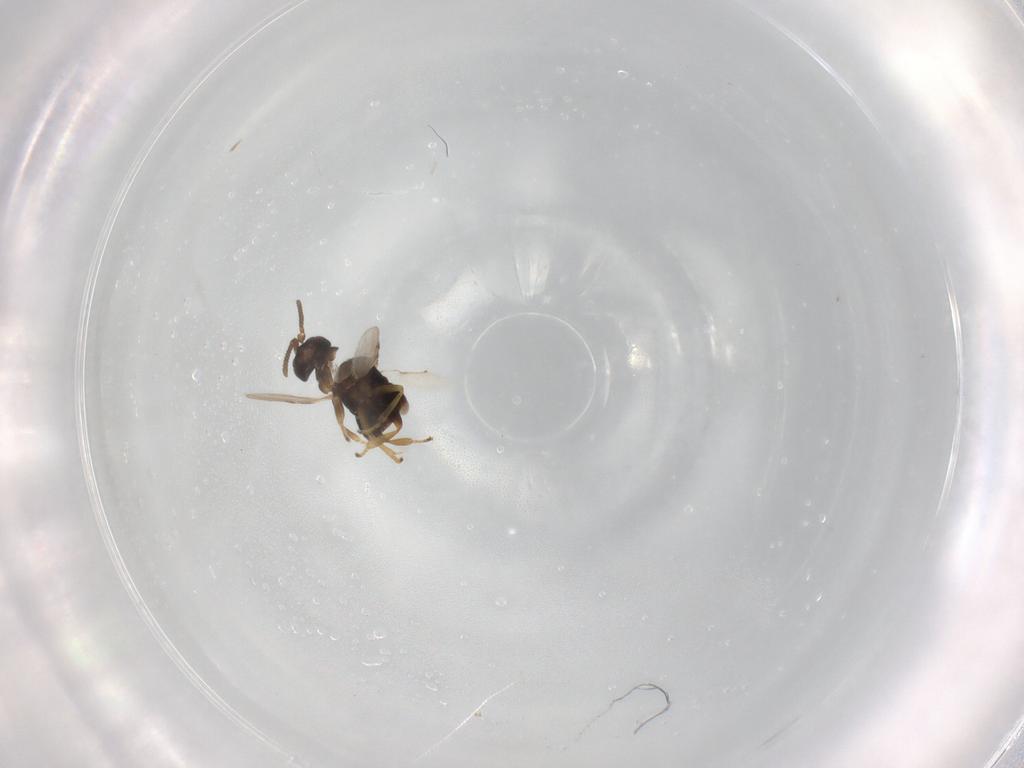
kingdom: Animalia
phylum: Arthropoda
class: Insecta
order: Hymenoptera
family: Encyrtidae
